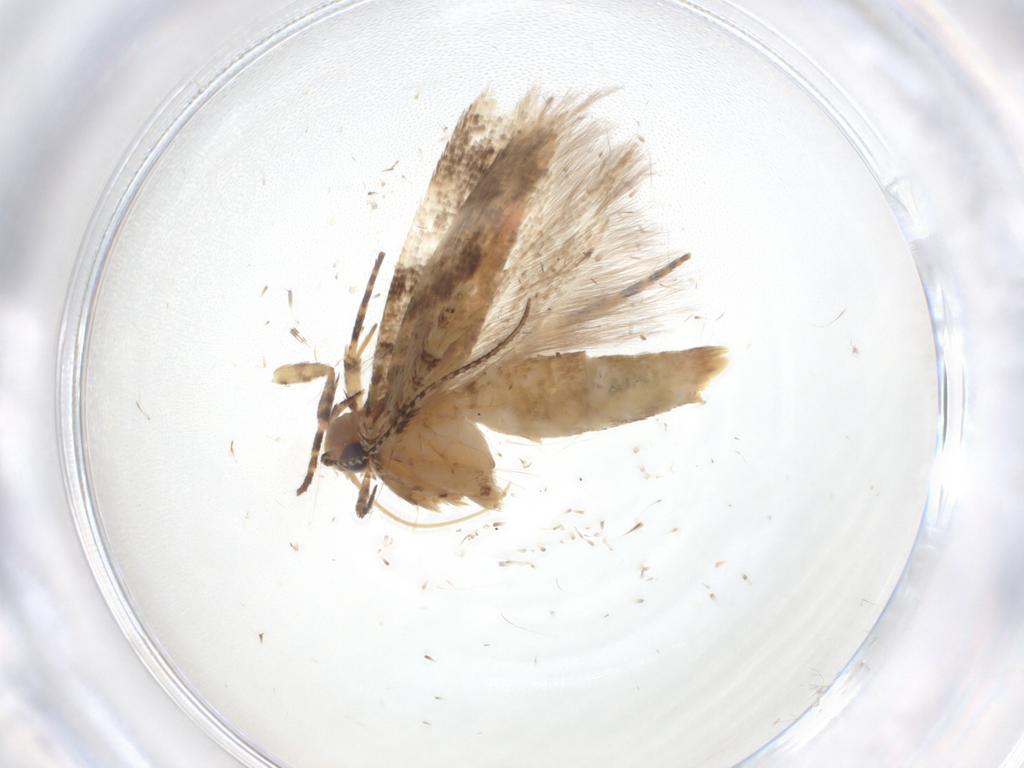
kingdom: Animalia
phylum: Arthropoda
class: Insecta
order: Lepidoptera
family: Gelechiidae
